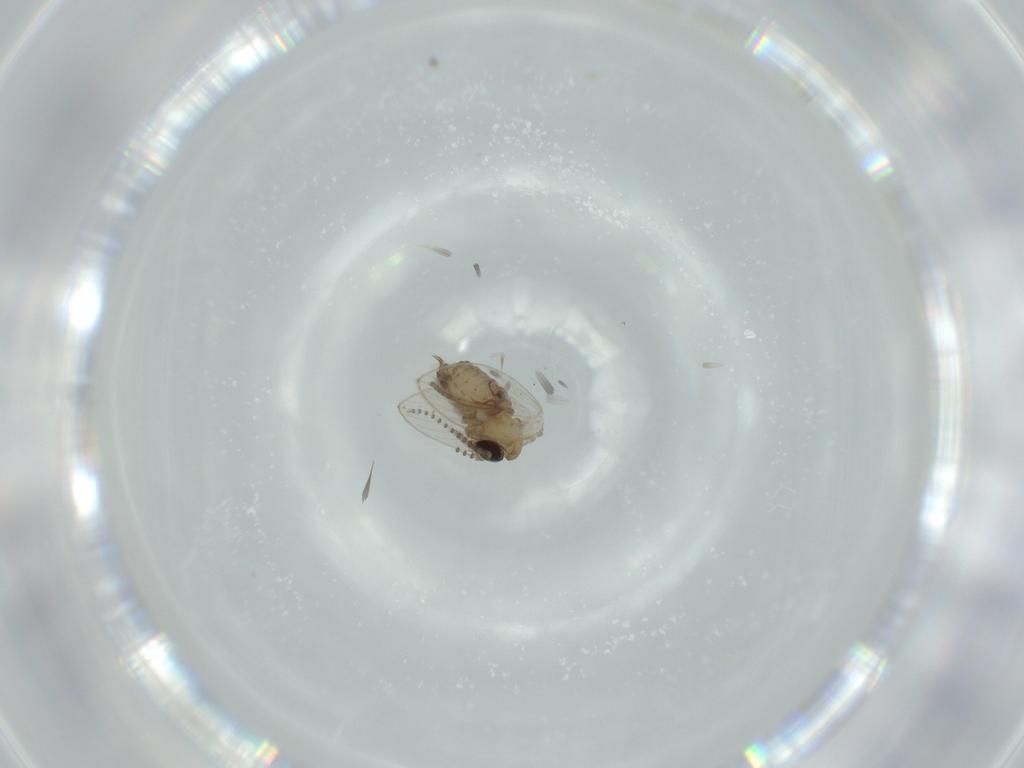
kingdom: Animalia
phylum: Arthropoda
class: Insecta
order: Diptera
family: Psychodidae
